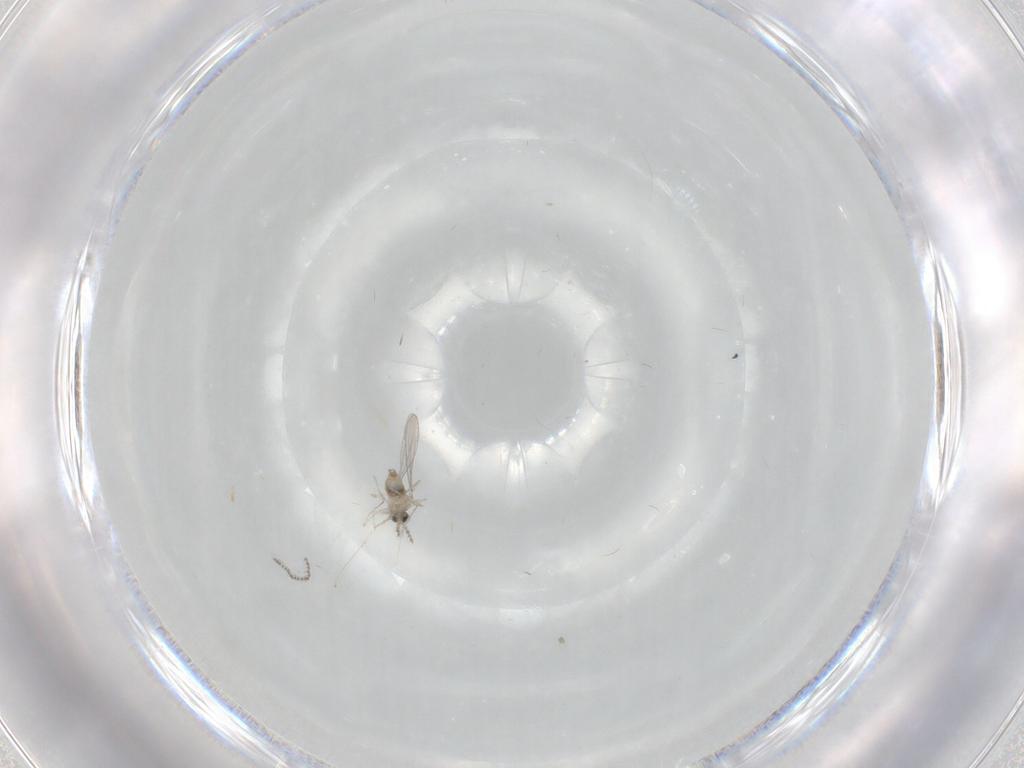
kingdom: Animalia
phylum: Arthropoda
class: Insecta
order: Diptera
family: Cecidomyiidae
